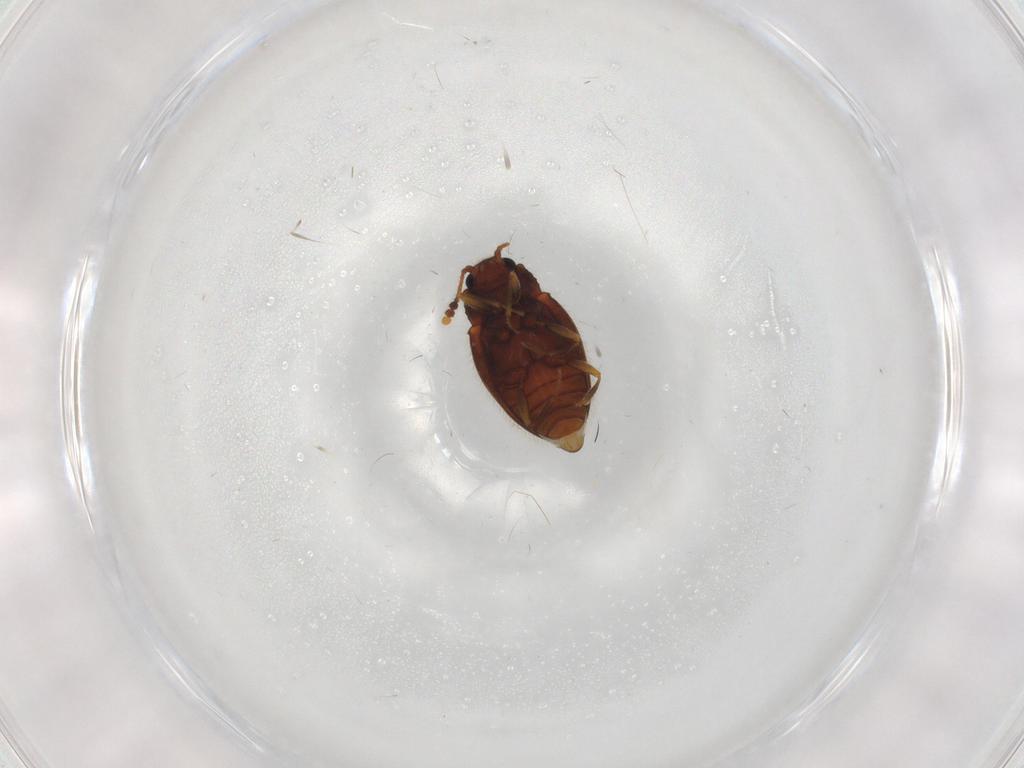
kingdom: Animalia
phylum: Arthropoda
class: Insecta
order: Coleoptera
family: Erotylidae
